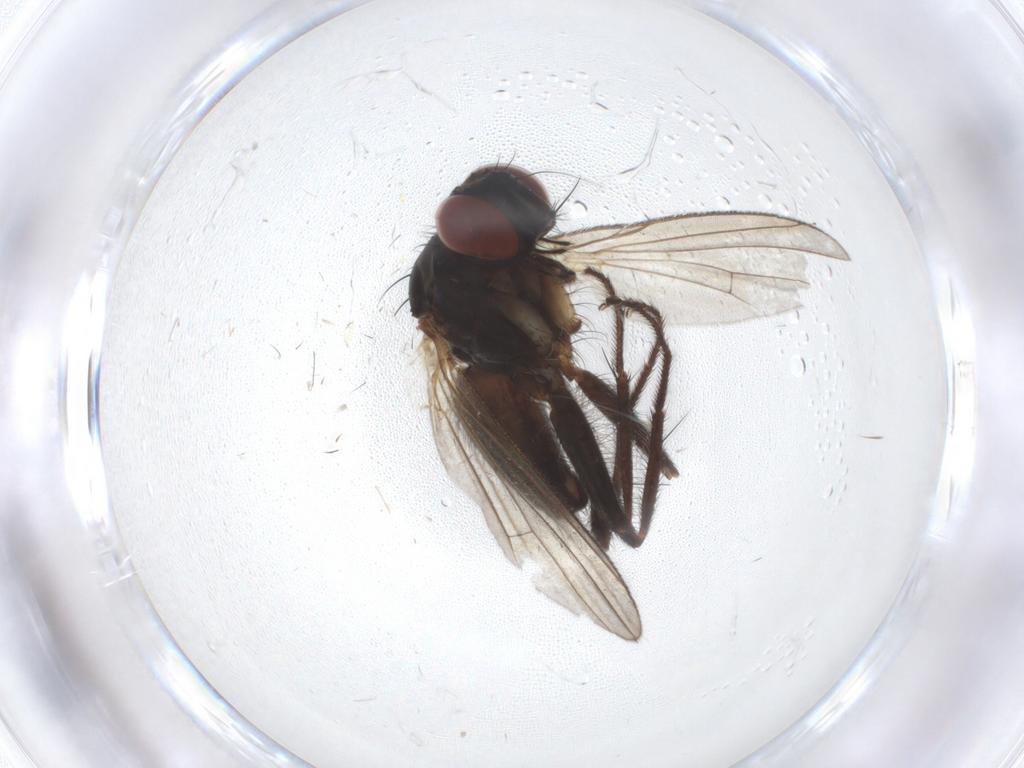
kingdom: Animalia
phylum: Arthropoda
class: Insecta
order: Diptera
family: Muscidae
